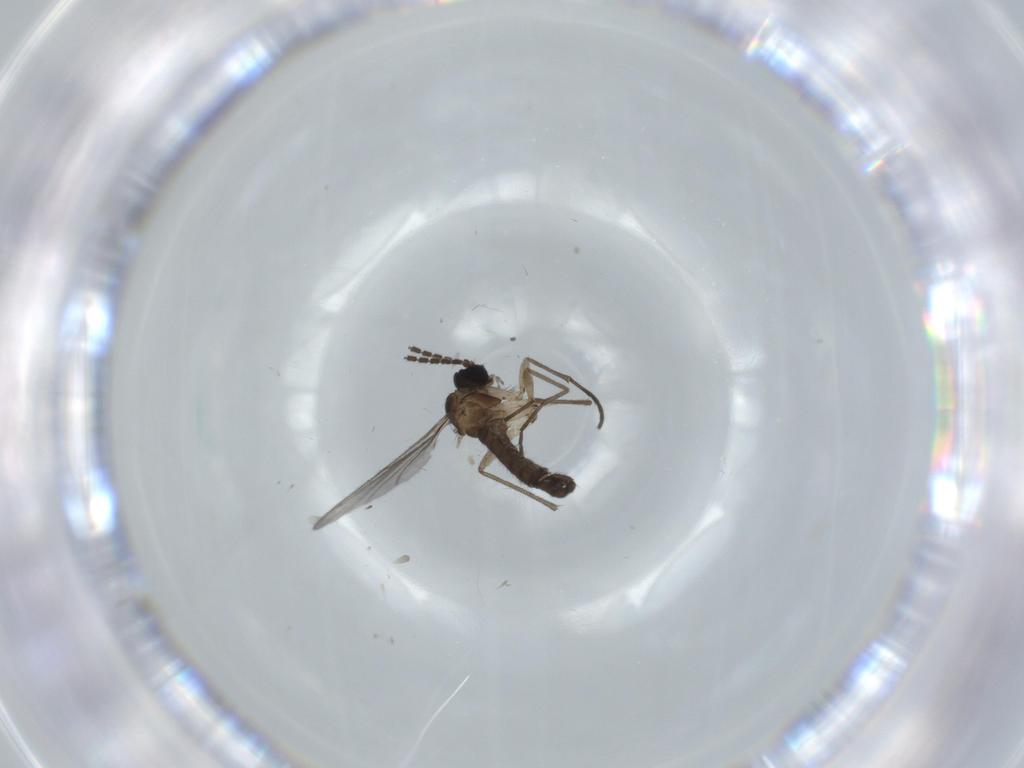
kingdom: Animalia
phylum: Arthropoda
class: Insecta
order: Diptera
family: Sciaridae
